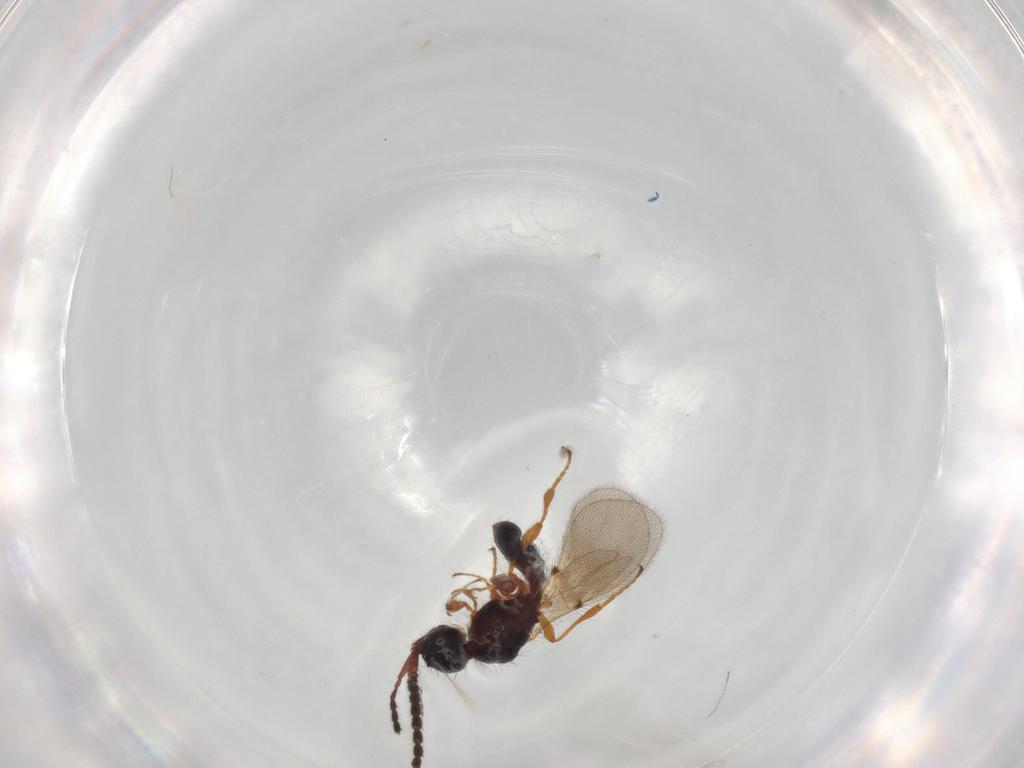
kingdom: Animalia
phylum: Arthropoda
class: Insecta
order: Hymenoptera
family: Diapriidae
